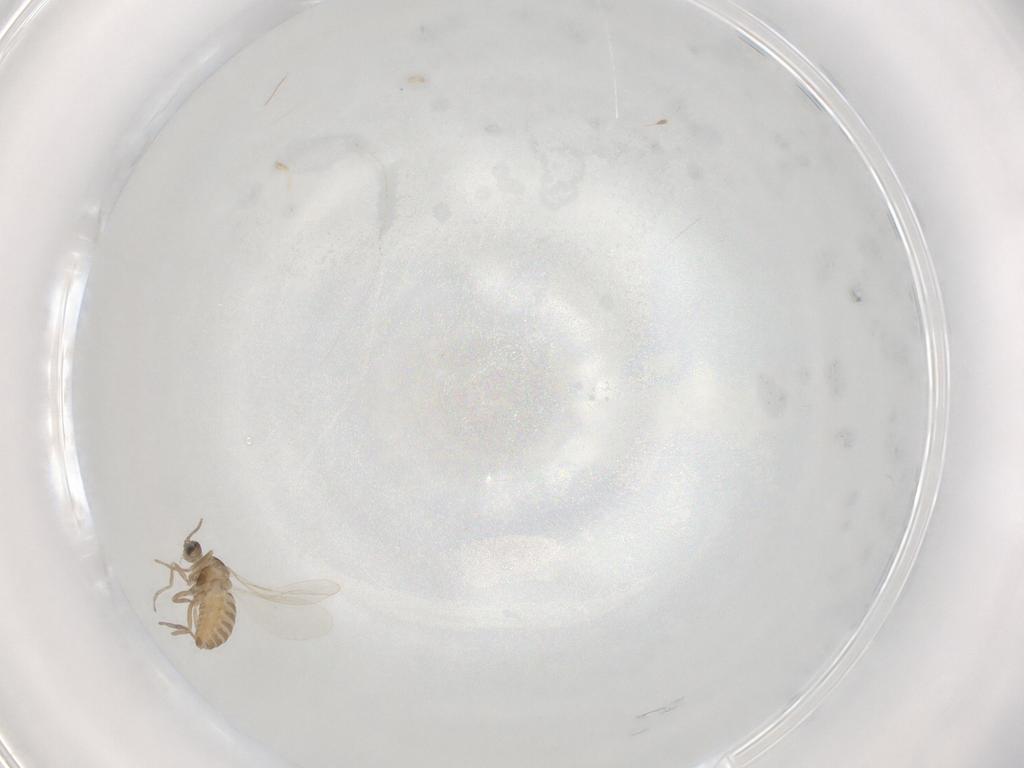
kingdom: Animalia
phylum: Arthropoda
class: Insecta
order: Diptera
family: Cecidomyiidae
